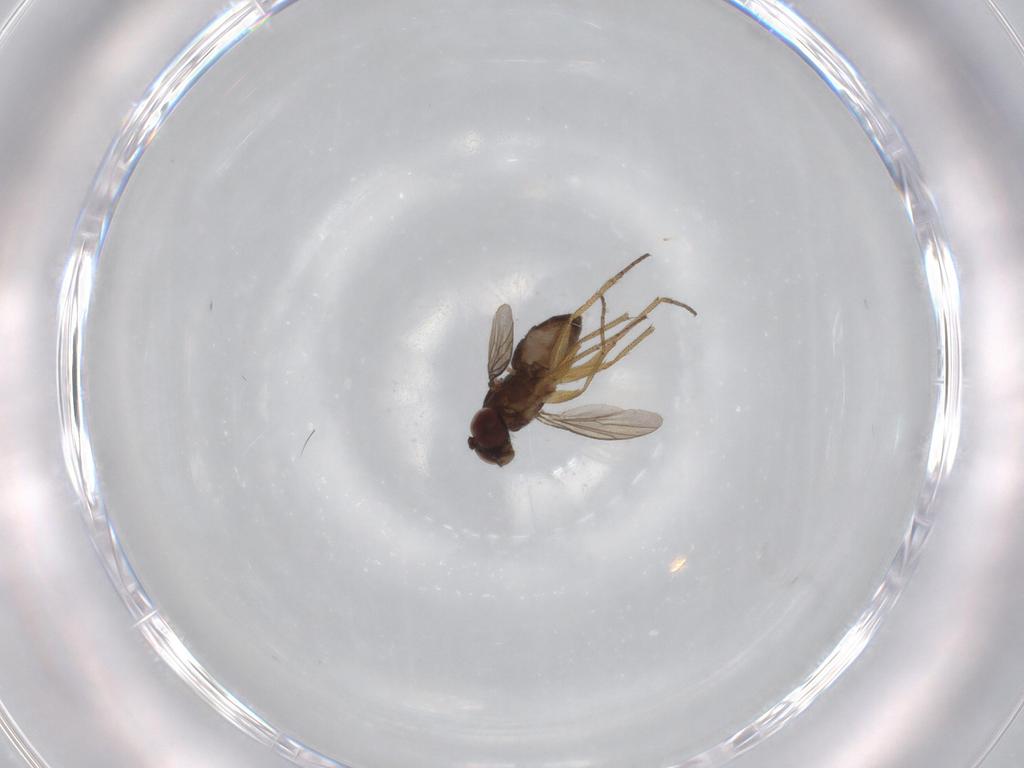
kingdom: Animalia
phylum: Arthropoda
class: Insecta
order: Diptera
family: Dolichopodidae
